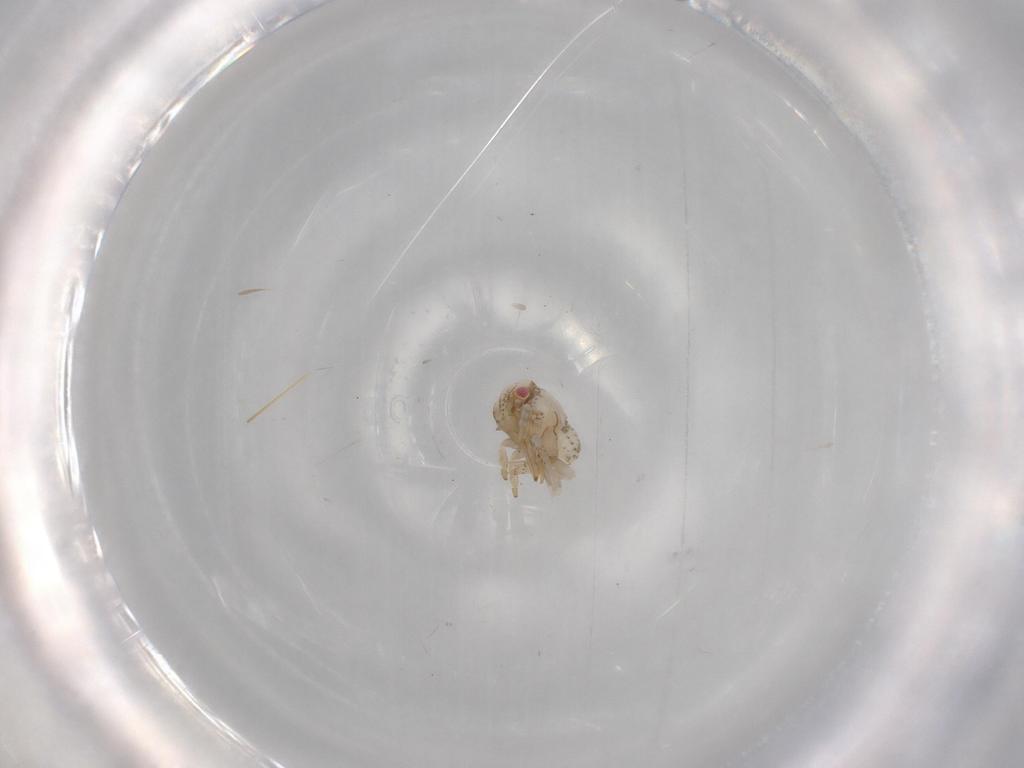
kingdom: Animalia
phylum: Arthropoda
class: Insecta
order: Hemiptera
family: Acanaloniidae
